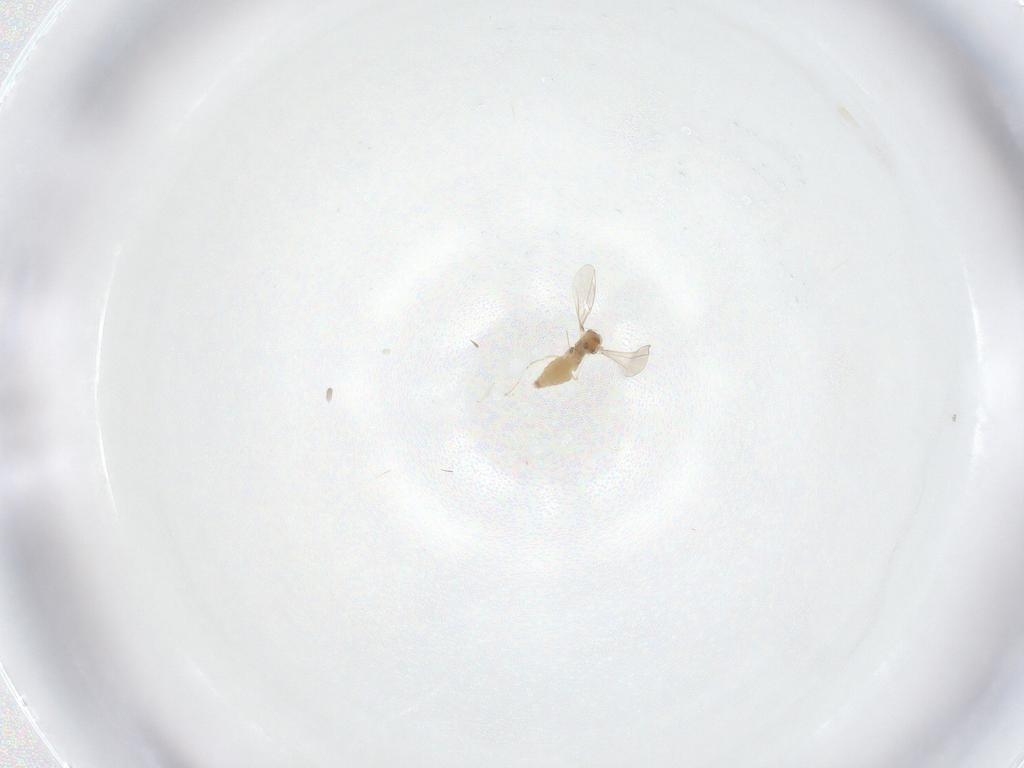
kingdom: Animalia
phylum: Arthropoda
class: Insecta
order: Diptera
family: Cecidomyiidae
